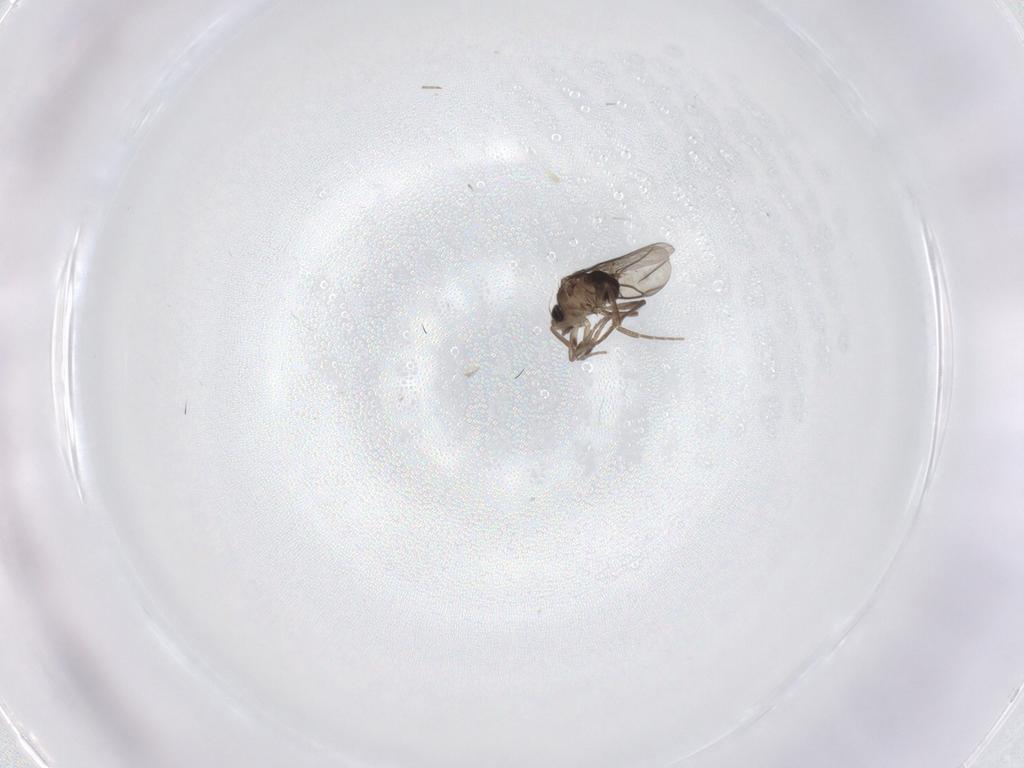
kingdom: Animalia
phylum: Arthropoda
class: Insecta
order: Diptera
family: Phoridae
